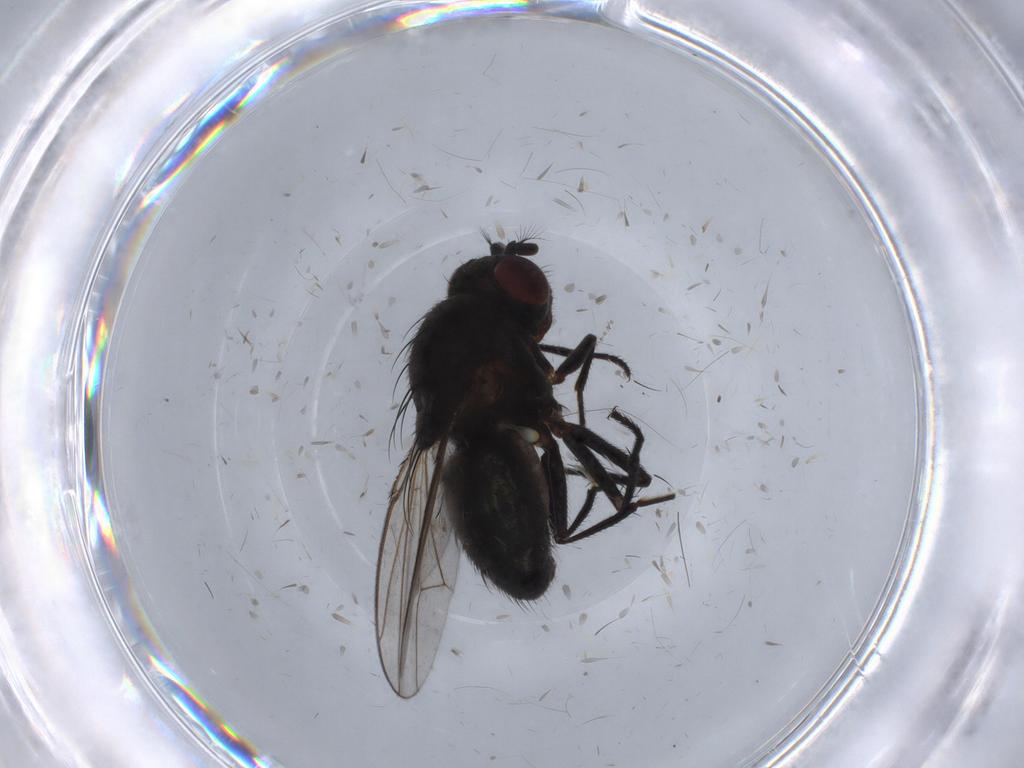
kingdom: Animalia
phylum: Arthropoda
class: Insecta
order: Diptera
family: Ephydridae
